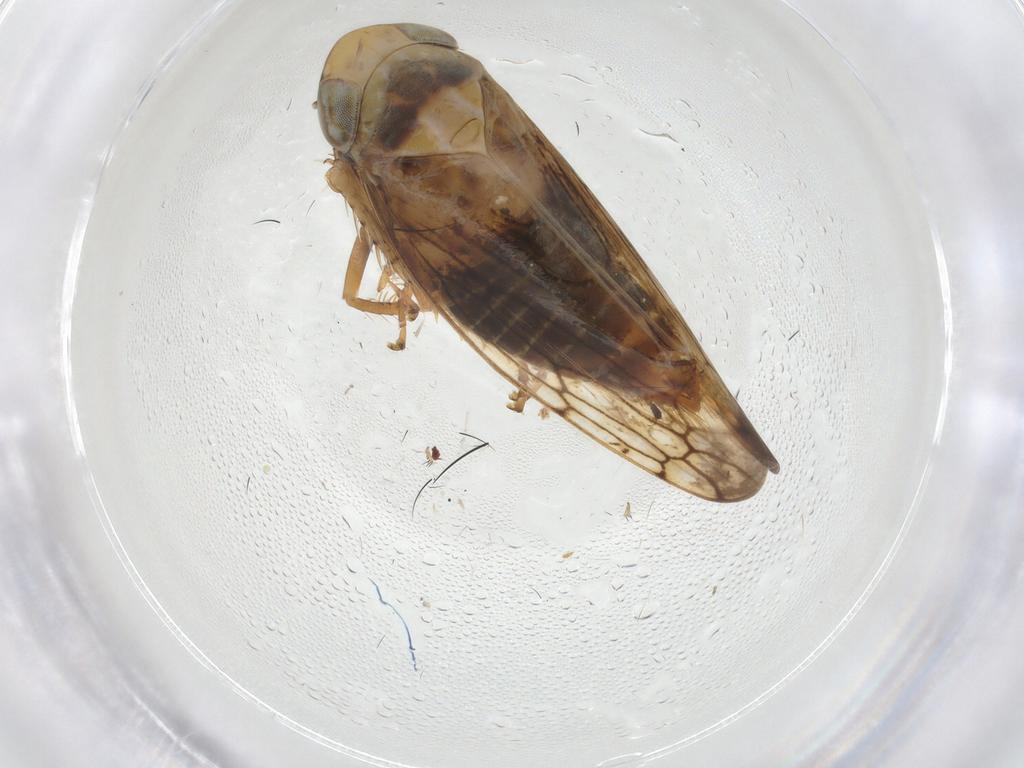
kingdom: Animalia
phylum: Arthropoda
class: Insecta
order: Hemiptera
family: Cicadellidae
